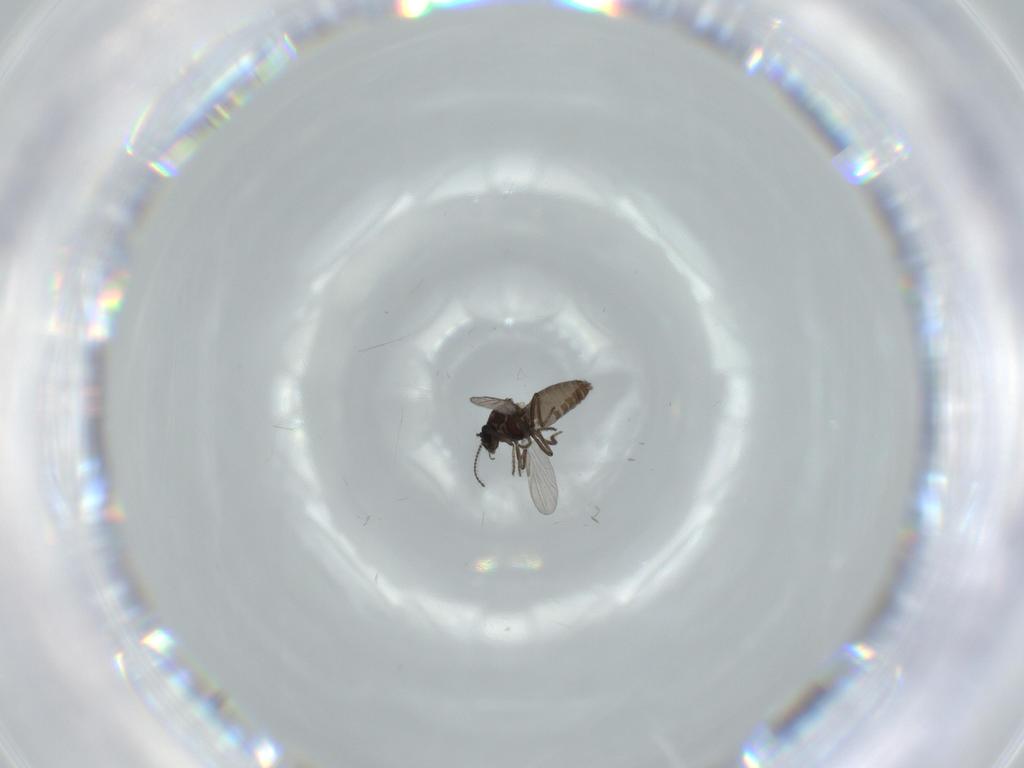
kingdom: Animalia
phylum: Arthropoda
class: Insecta
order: Diptera
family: Ceratopogonidae
